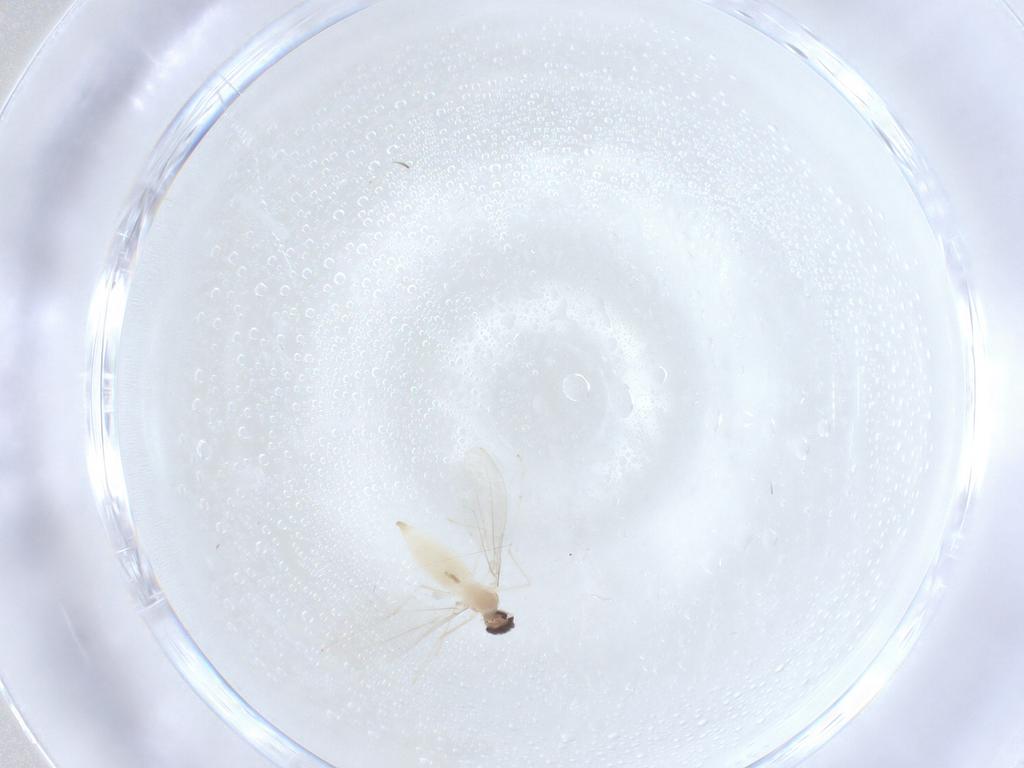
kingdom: Animalia
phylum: Arthropoda
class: Insecta
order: Diptera
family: Cecidomyiidae
